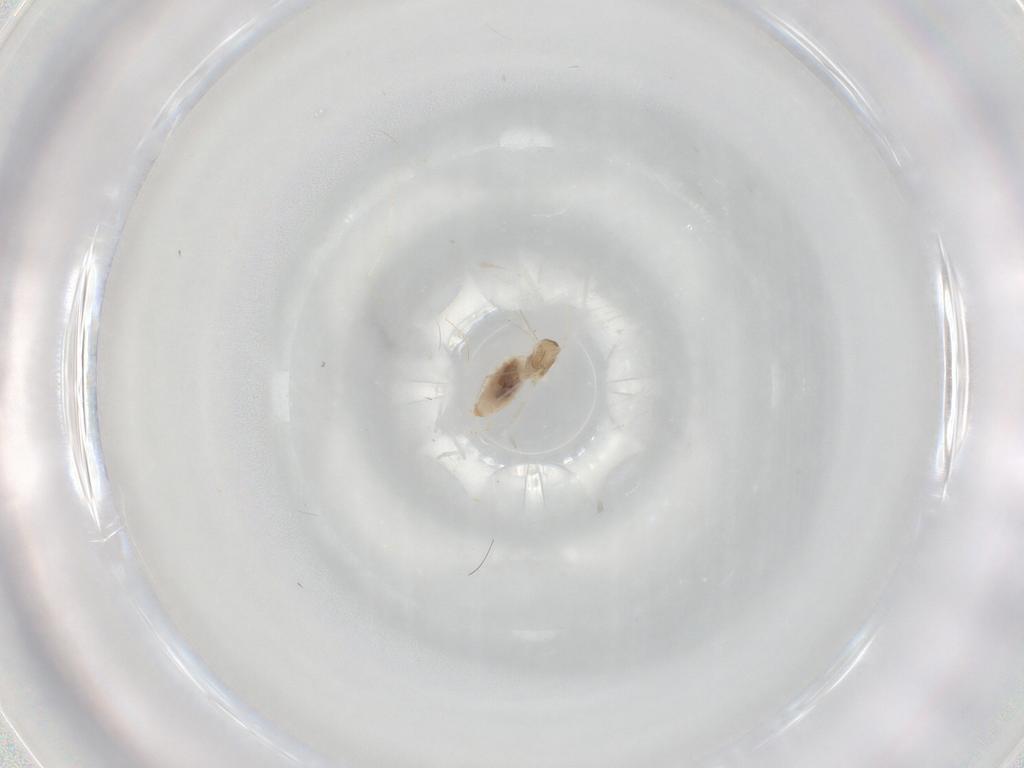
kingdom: Animalia
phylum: Arthropoda
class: Insecta
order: Diptera
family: Cecidomyiidae
